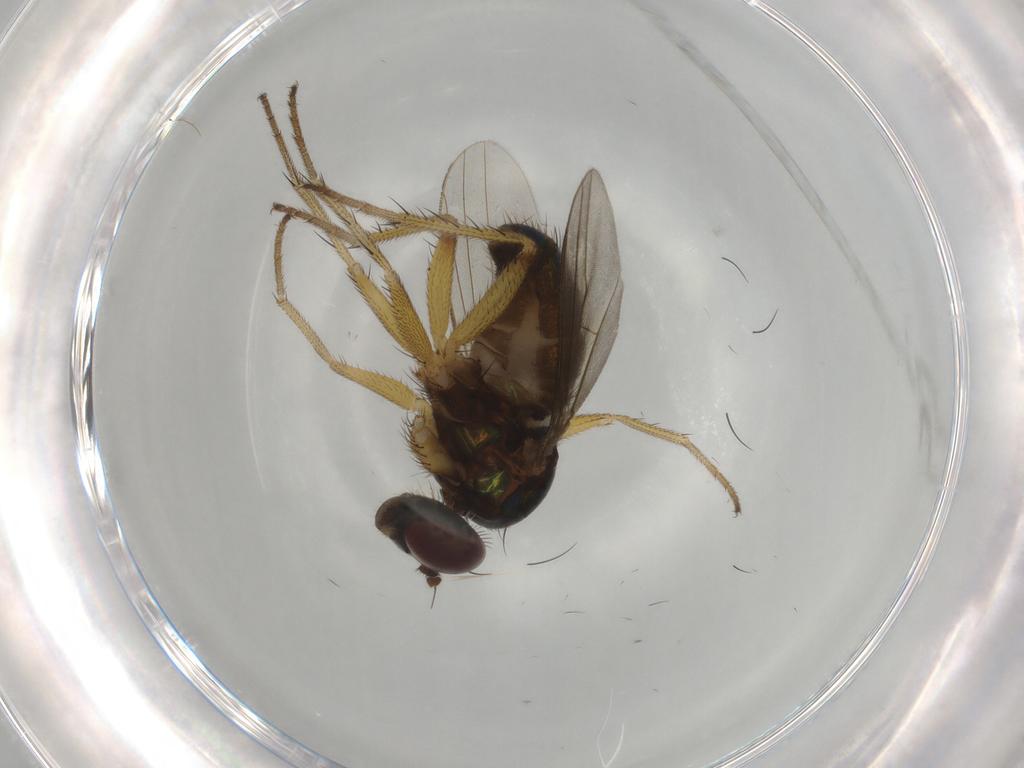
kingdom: Animalia
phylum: Arthropoda
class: Insecta
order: Diptera
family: Dolichopodidae
